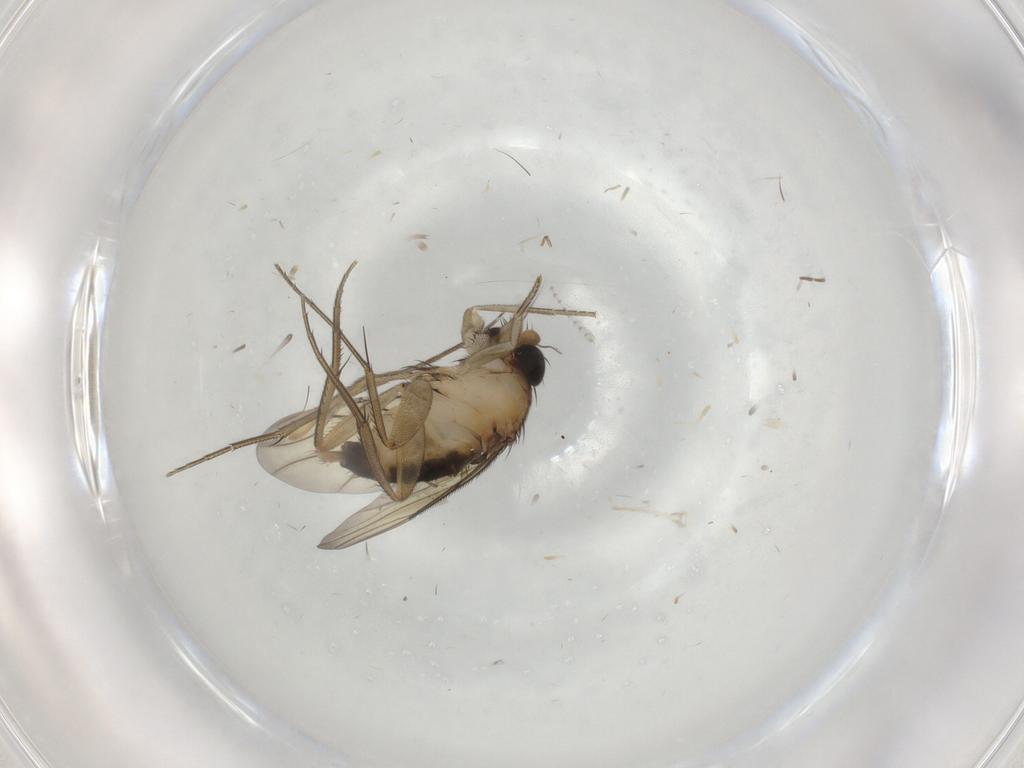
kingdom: Animalia
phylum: Arthropoda
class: Insecta
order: Diptera
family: Mycetophilidae
